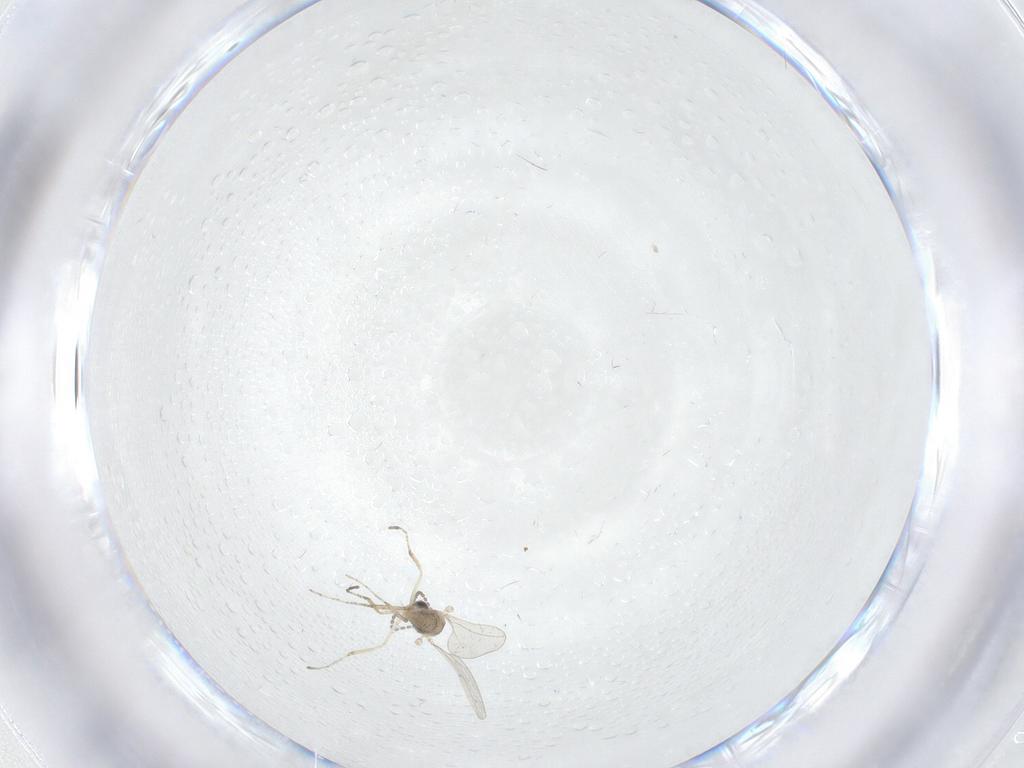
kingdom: Animalia
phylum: Arthropoda
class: Insecta
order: Diptera
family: Cecidomyiidae
